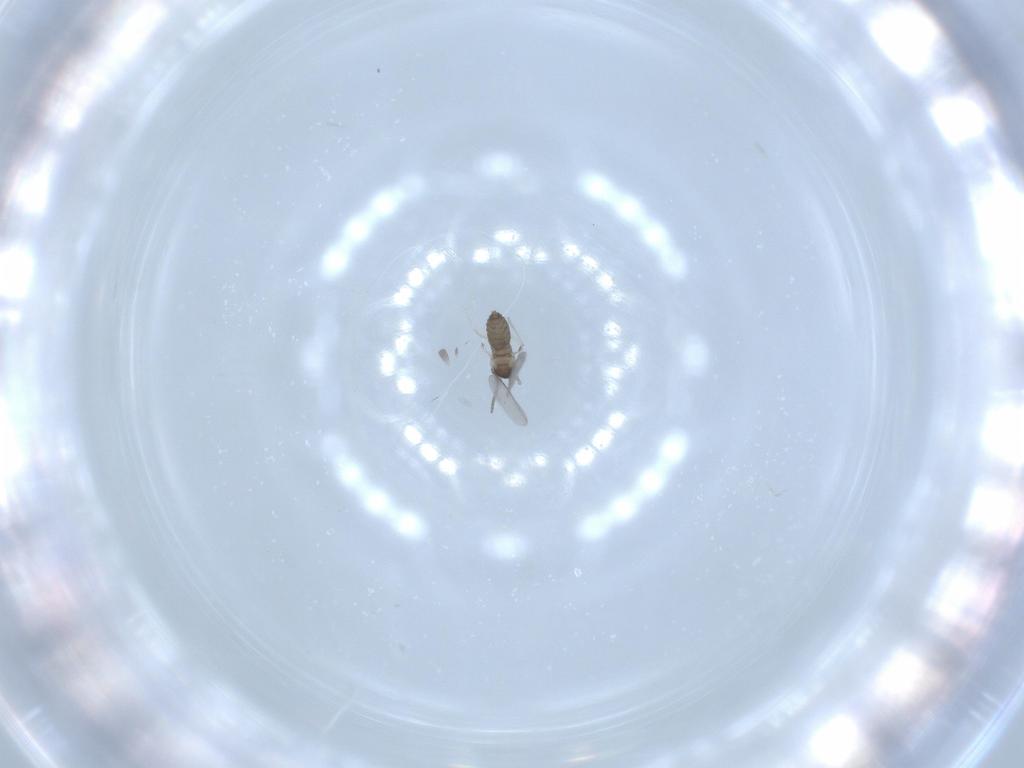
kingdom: Animalia
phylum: Arthropoda
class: Insecta
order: Diptera
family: Cecidomyiidae
